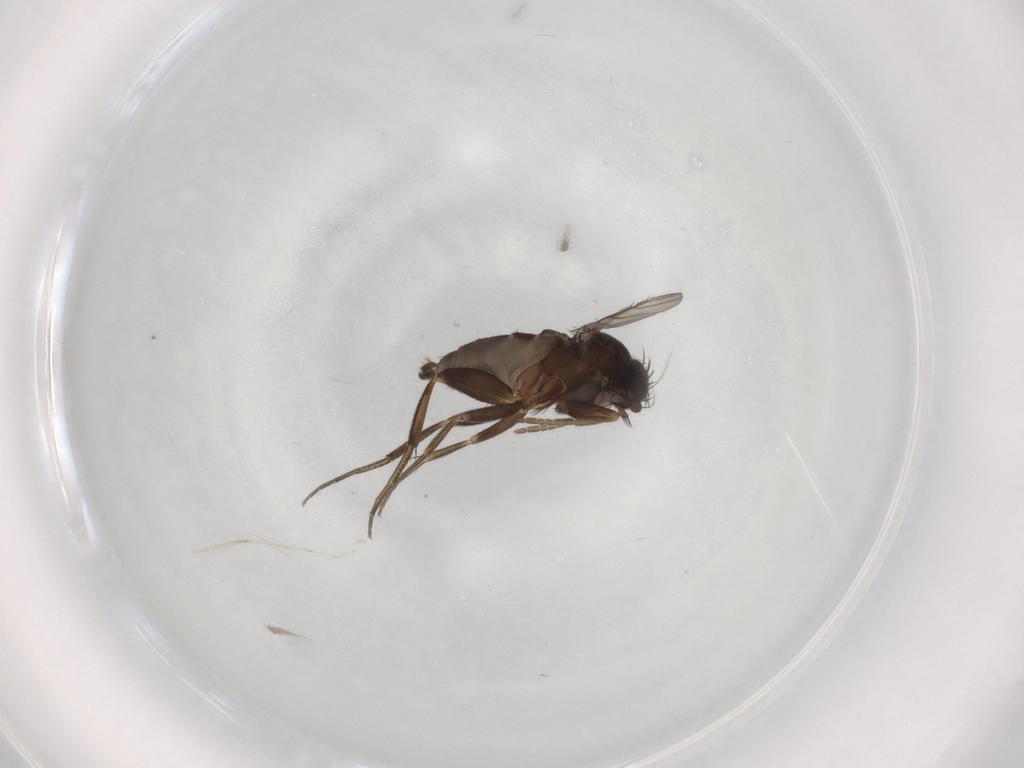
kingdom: Animalia
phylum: Arthropoda
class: Insecta
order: Diptera
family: Phoridae
